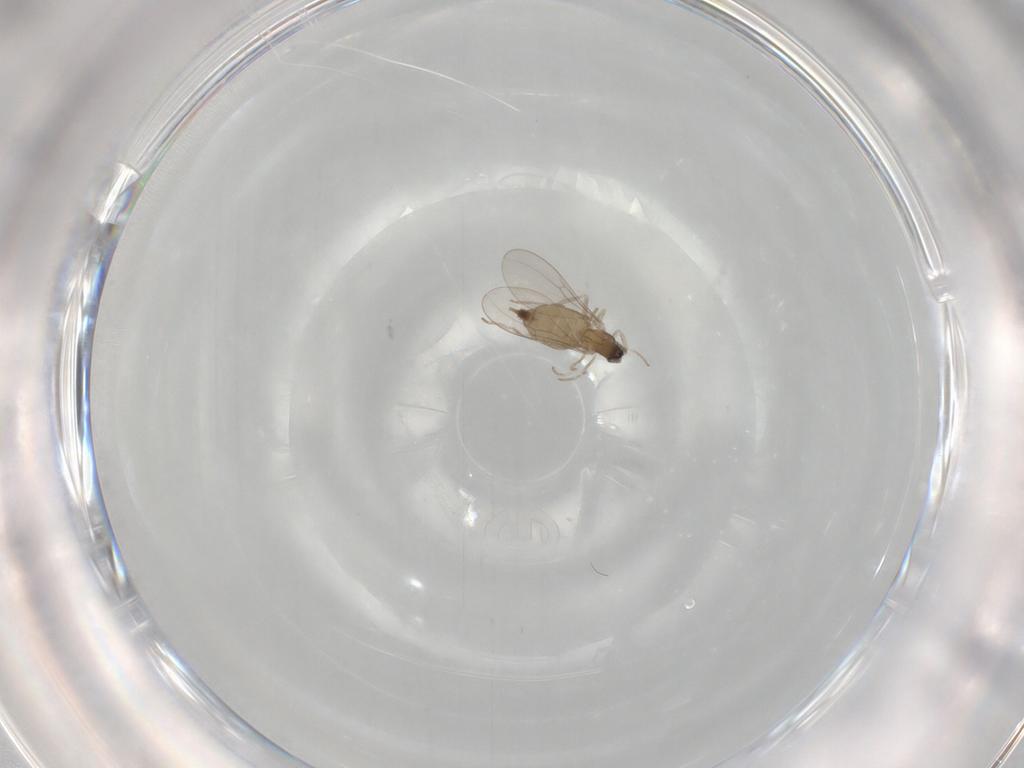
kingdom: Animalia
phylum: Arthropoda
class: Insecta
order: Diptera
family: Cecidomyiidae
